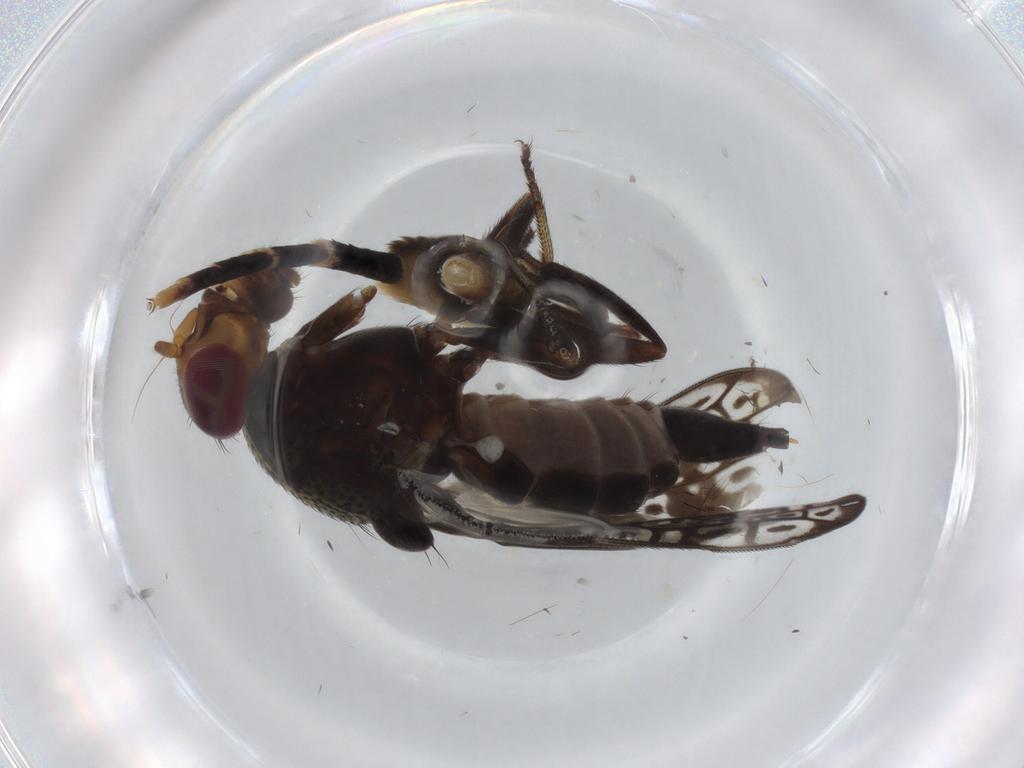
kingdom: Animalia
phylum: Arthropoda
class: Insecta
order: Diptera
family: Ulidiidae
